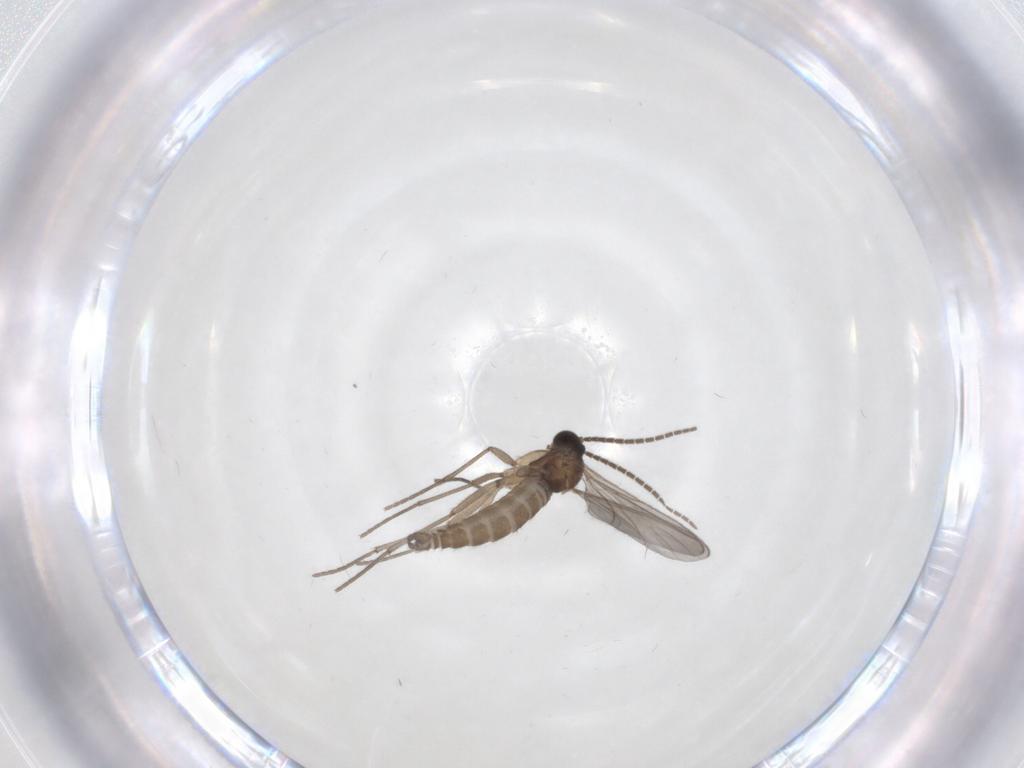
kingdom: Animalia
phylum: Arthropoda
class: Insecta
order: Diptera
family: Sciaridae
